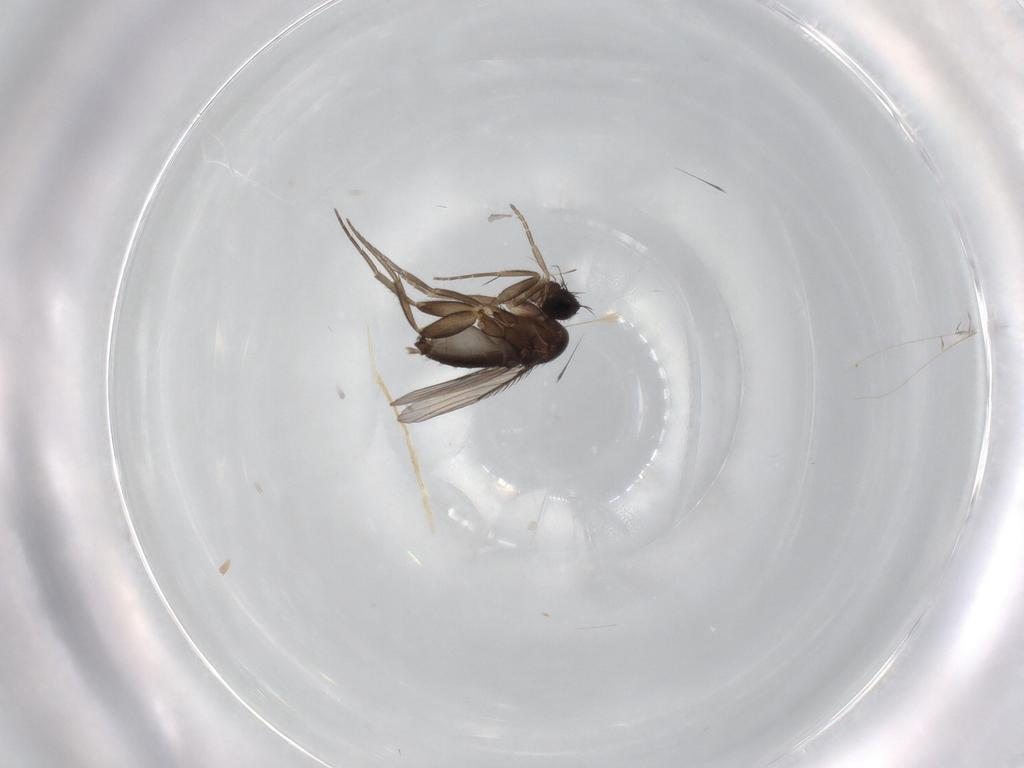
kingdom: Animalia
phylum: Arthropoda
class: Insecta
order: Diptera
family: Phoridae
